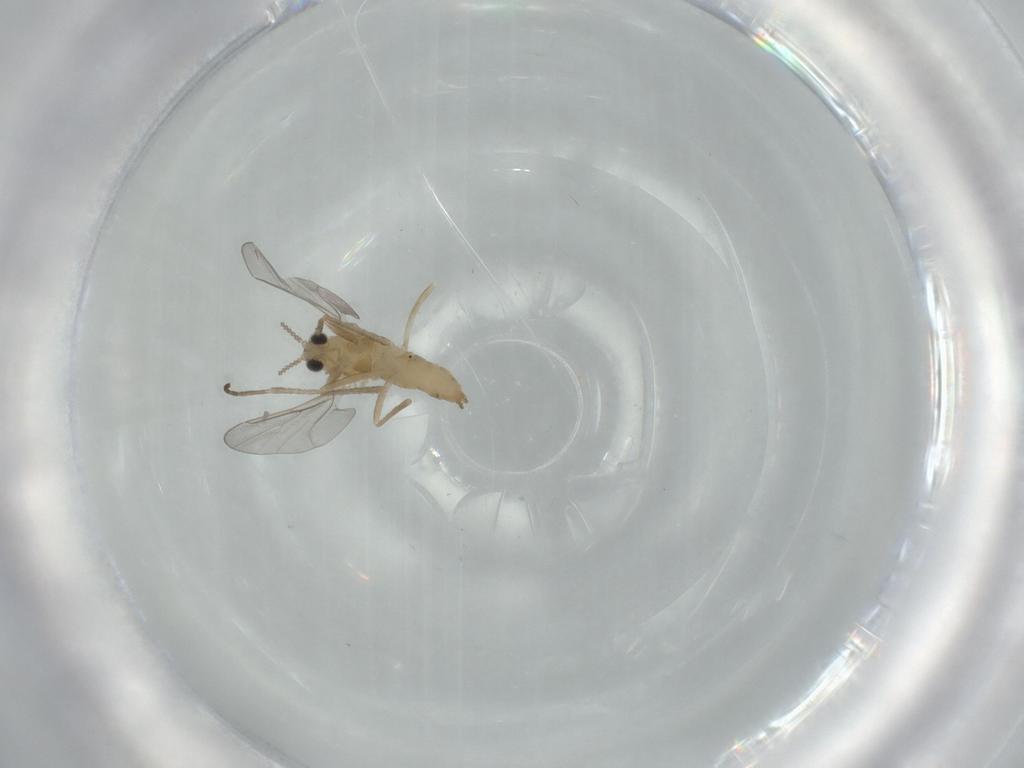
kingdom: Animalia
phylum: Arthropoda
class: Insecta
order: Diptera
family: Cecidomyiidae
